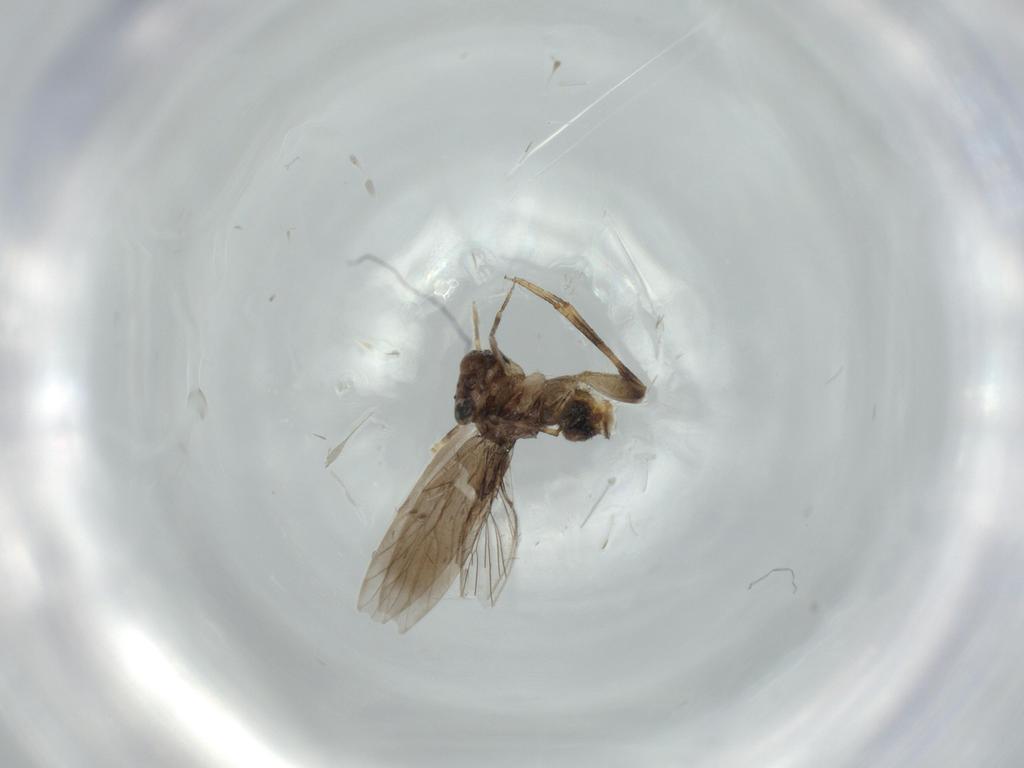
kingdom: Animalia
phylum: Arthropoda
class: Insecta
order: Psocodea
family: Lepidopsocidae
